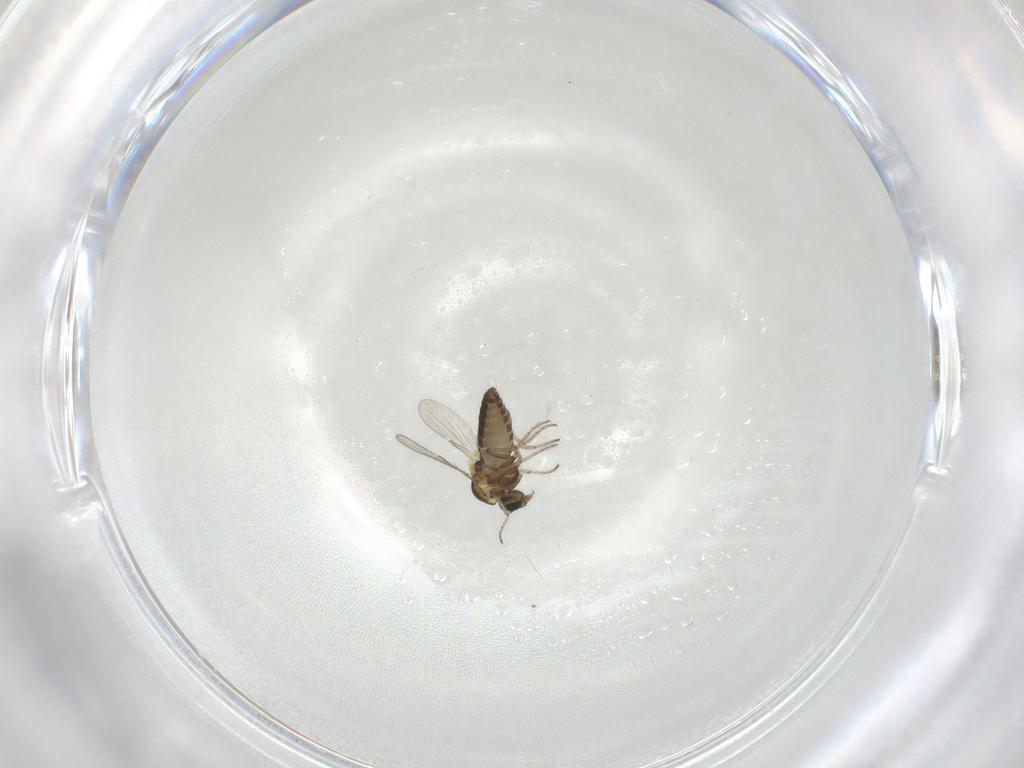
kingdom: Animalia
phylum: Arthropoda
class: Insecta
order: Diptera
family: Ceratopogonidae
